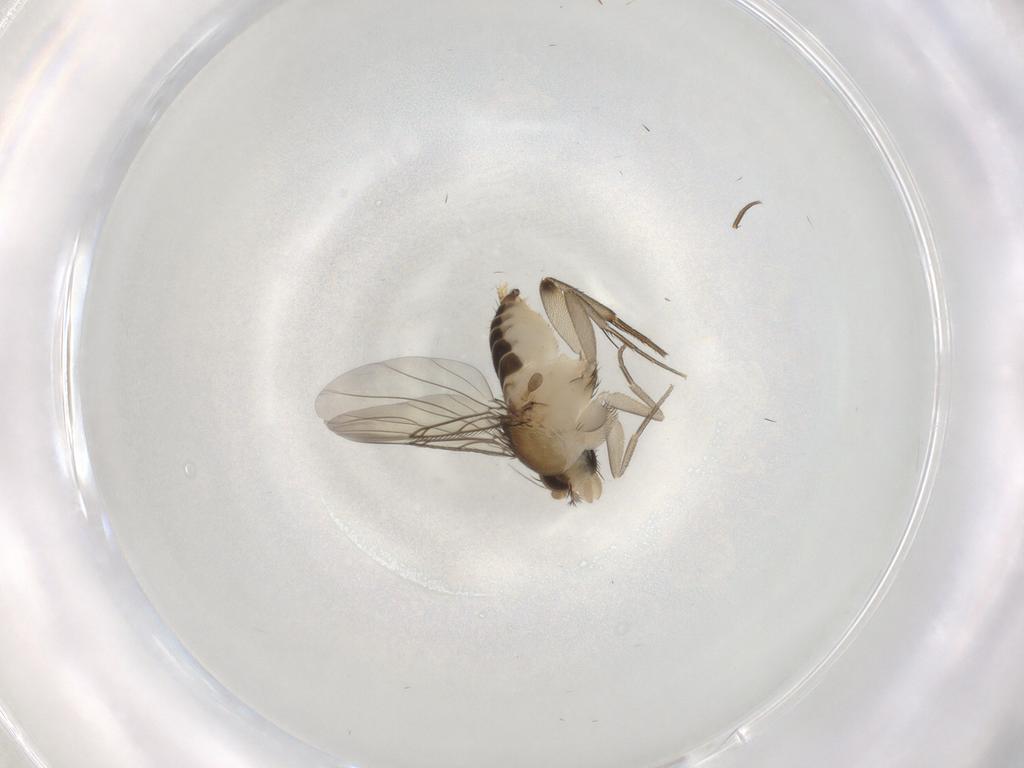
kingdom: Animalia
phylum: Arthropoda
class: Insecta
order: Diptera
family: Phoridae
